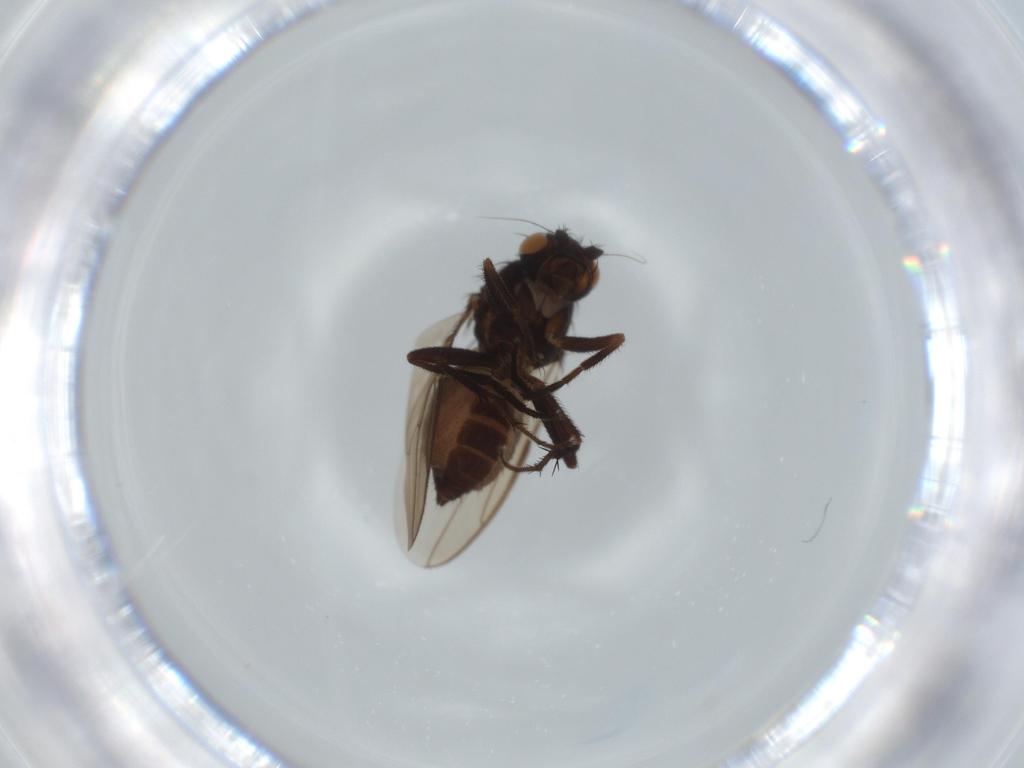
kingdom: Animalia
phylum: Arthropoda
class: Insecta
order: Diptera
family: Sphaeroceridae
